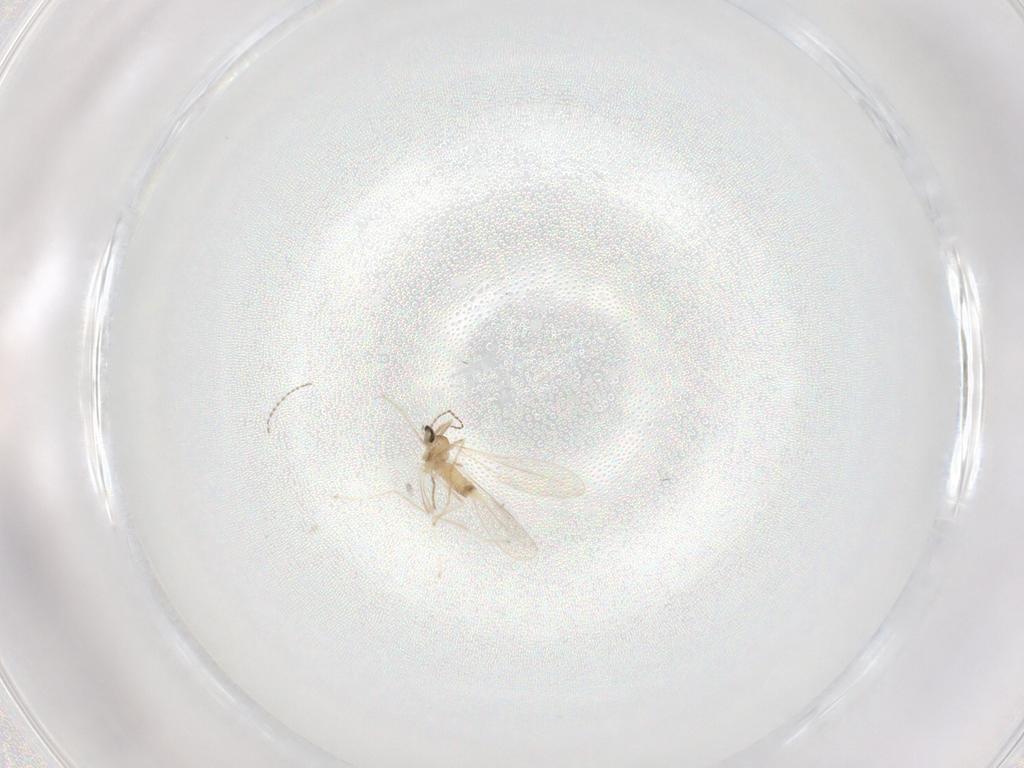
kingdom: Animalia
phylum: Arthropoda
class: Insecta
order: Diptera
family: Cecidomyiidae
